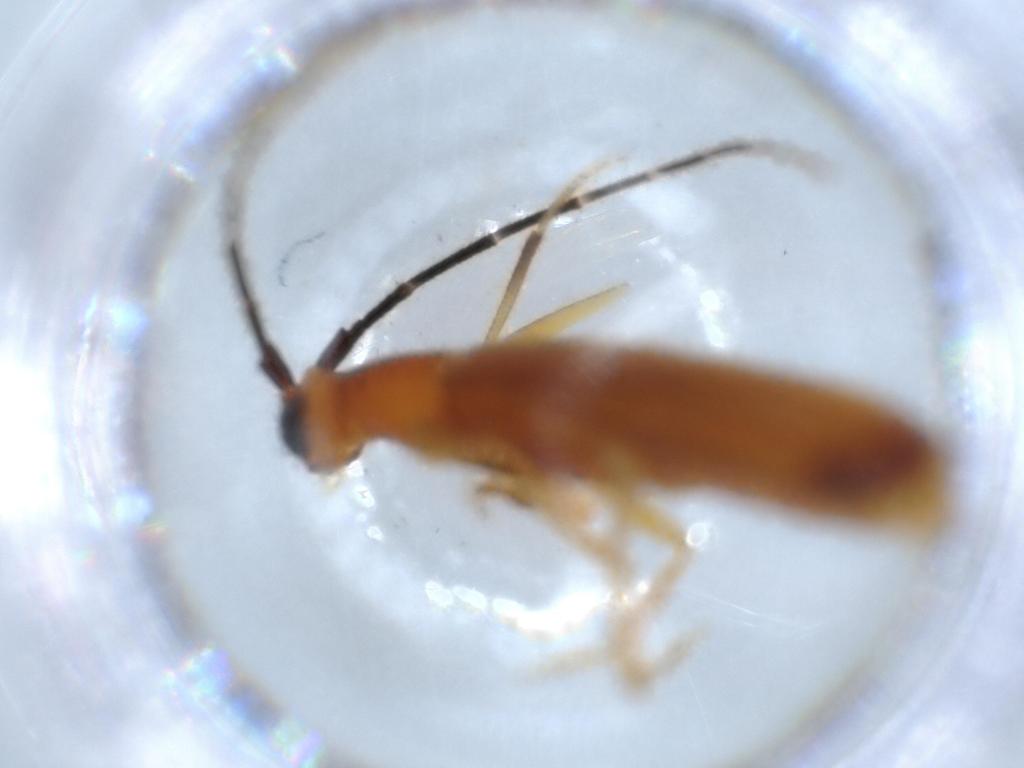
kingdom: Animalia
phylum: Arthropoda
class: Insecta
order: Coleoptera
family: Cerambycidae
